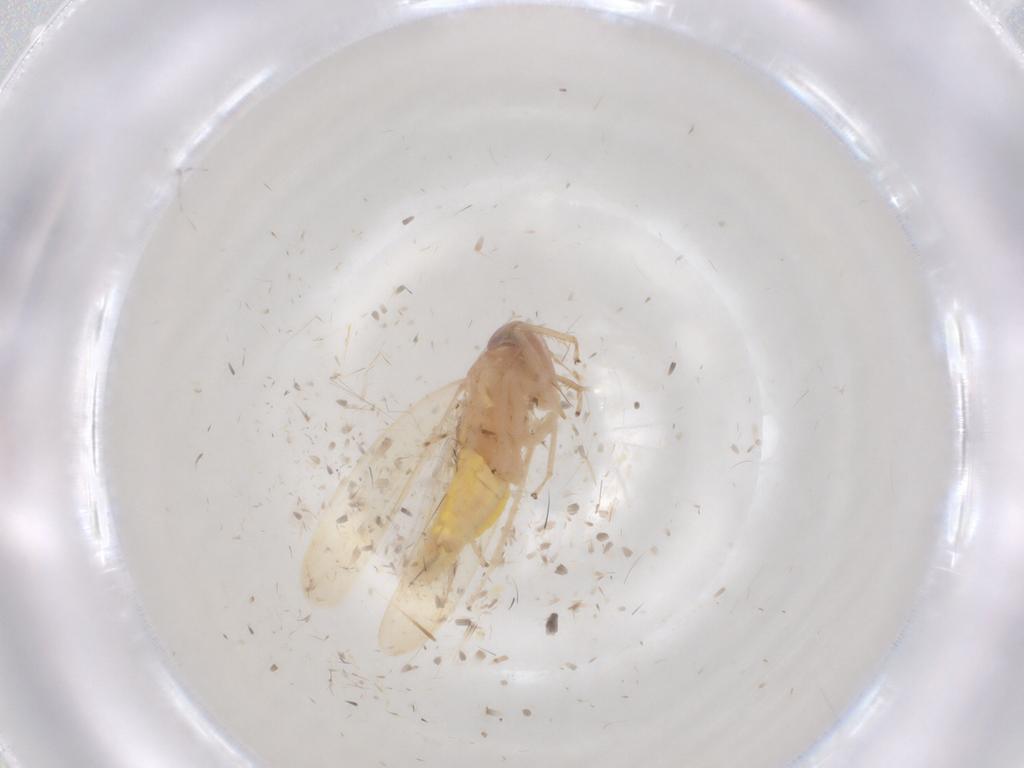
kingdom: Animalia
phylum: Arthropoda
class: Insecta
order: Hemiptera
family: Cicadellidae
